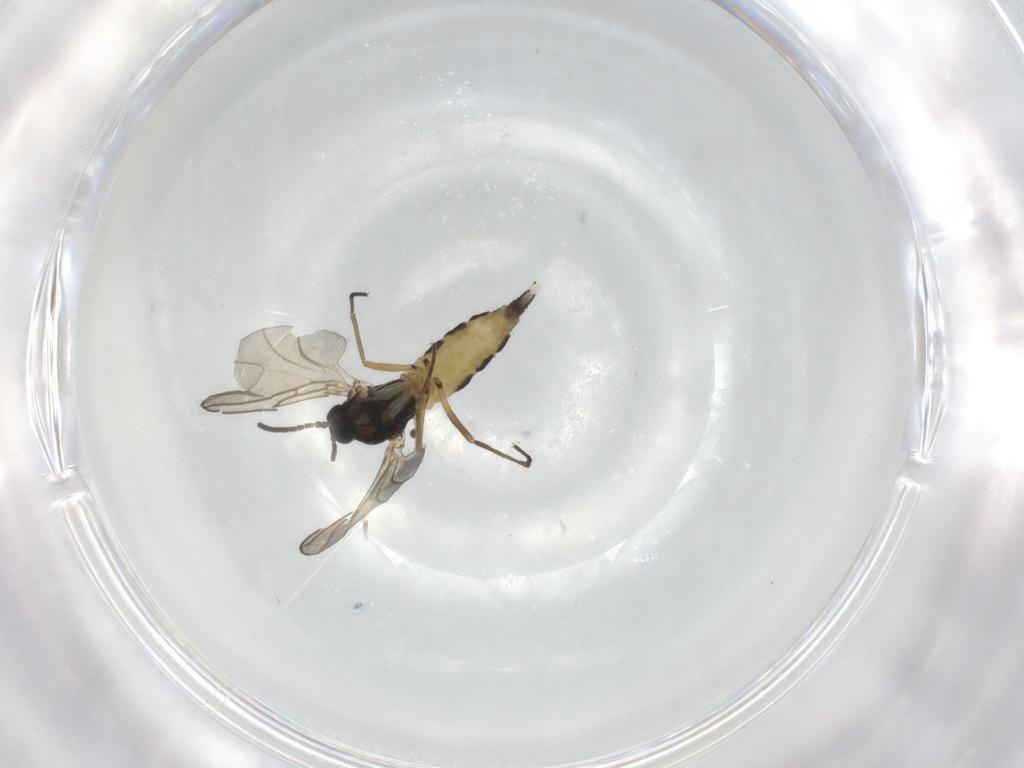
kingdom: Animalia
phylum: Arthropoda
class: Insecta
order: Diptera
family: Sciaridae
